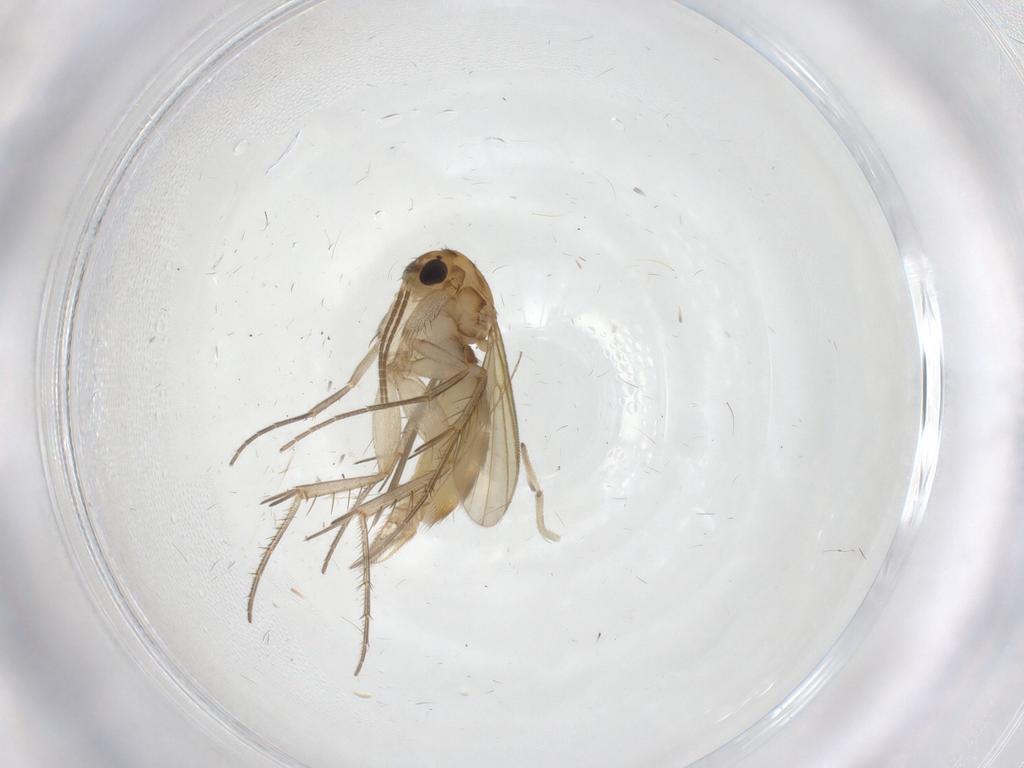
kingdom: Animalia
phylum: Arthropoda
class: Insecta
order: Diptera
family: Mycetophilidae
